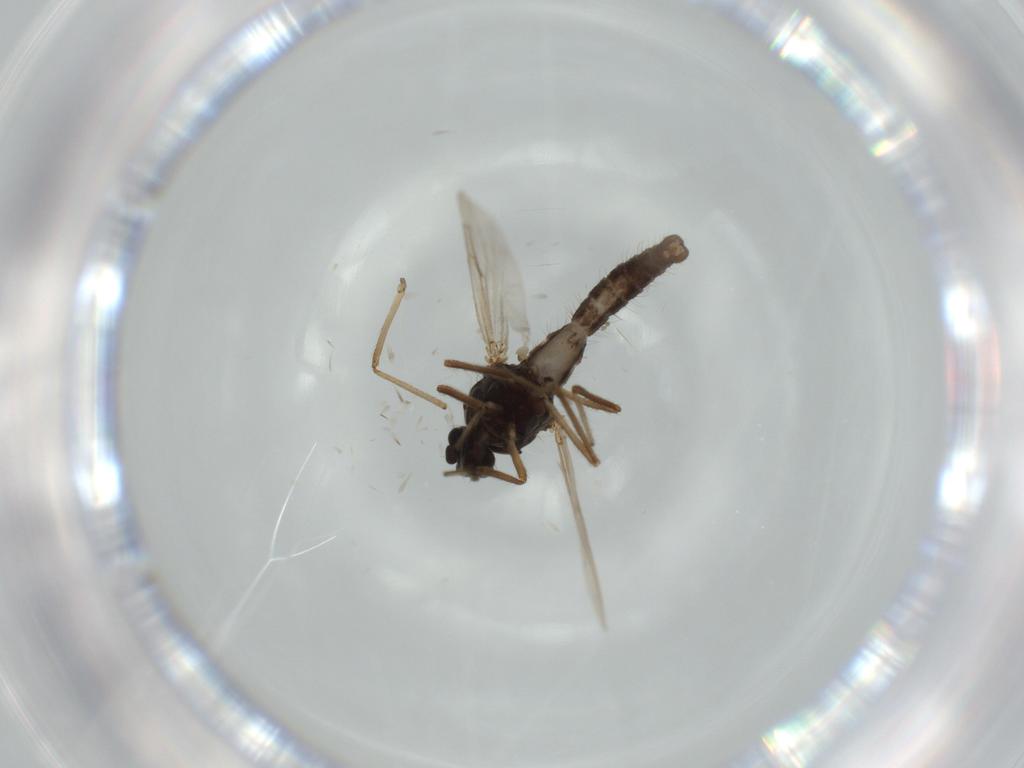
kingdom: Animalia
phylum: Arthropoda
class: Insecta
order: Diptera
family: Ceratopogonidae
